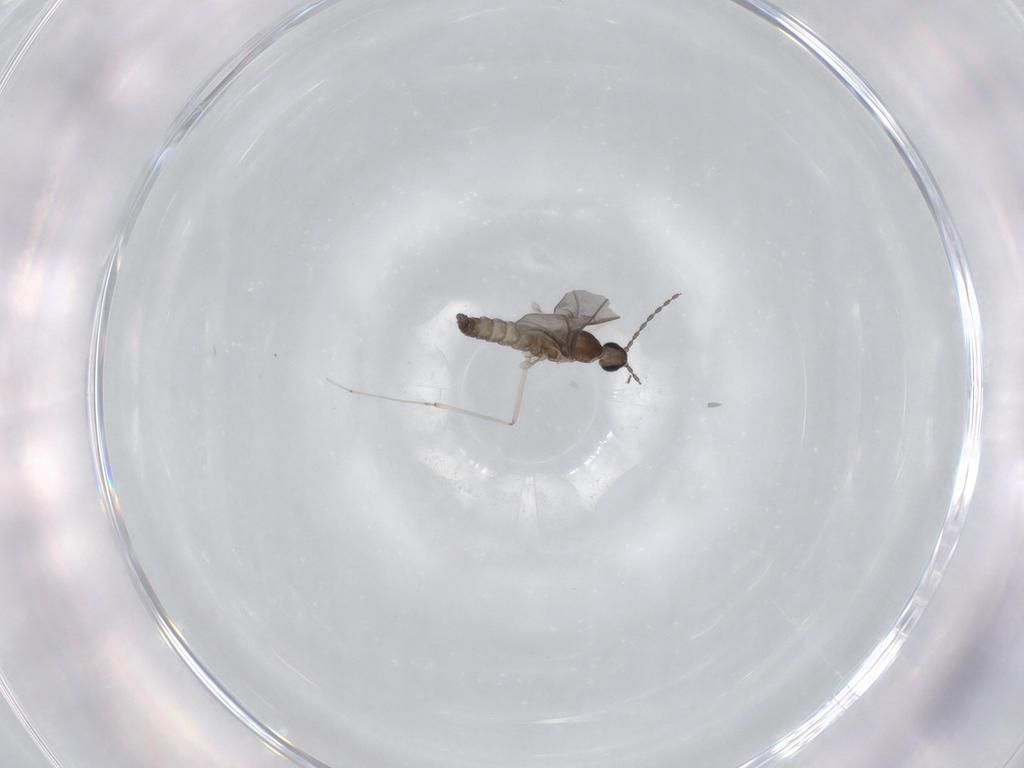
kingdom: Animalia
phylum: Arthropoda
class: Insecta
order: Diptera
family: Cecidomyiidae
